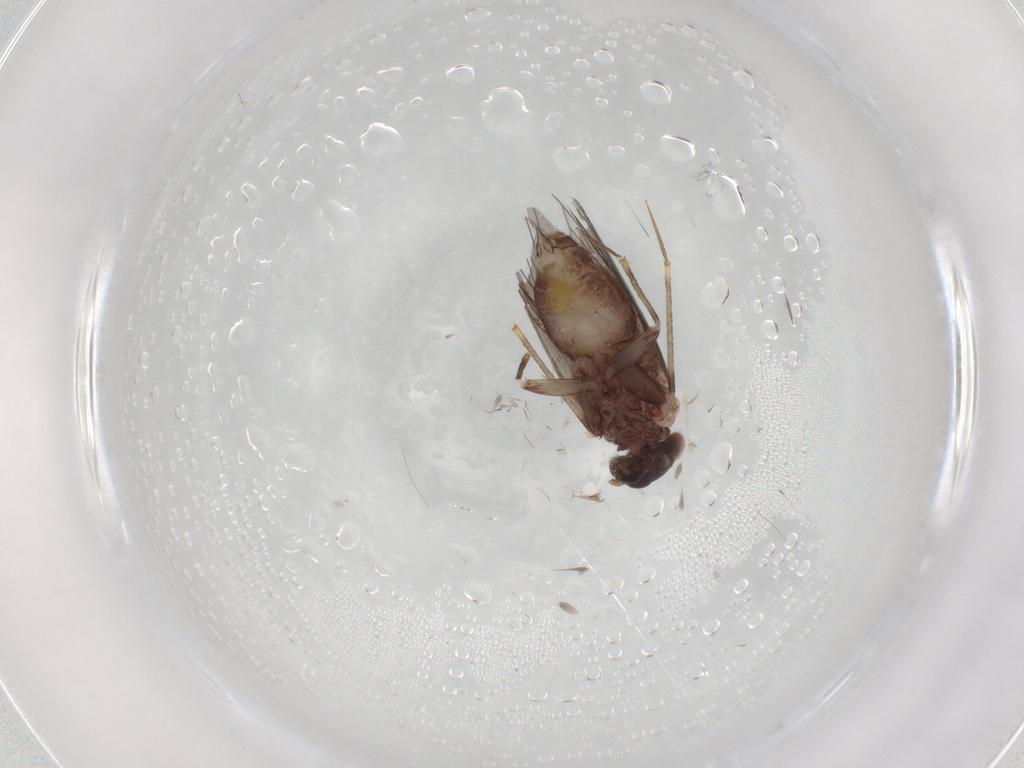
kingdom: Animalia
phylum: Arthropoda
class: Insecta
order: Psocodea
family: Lepidopsocidae
